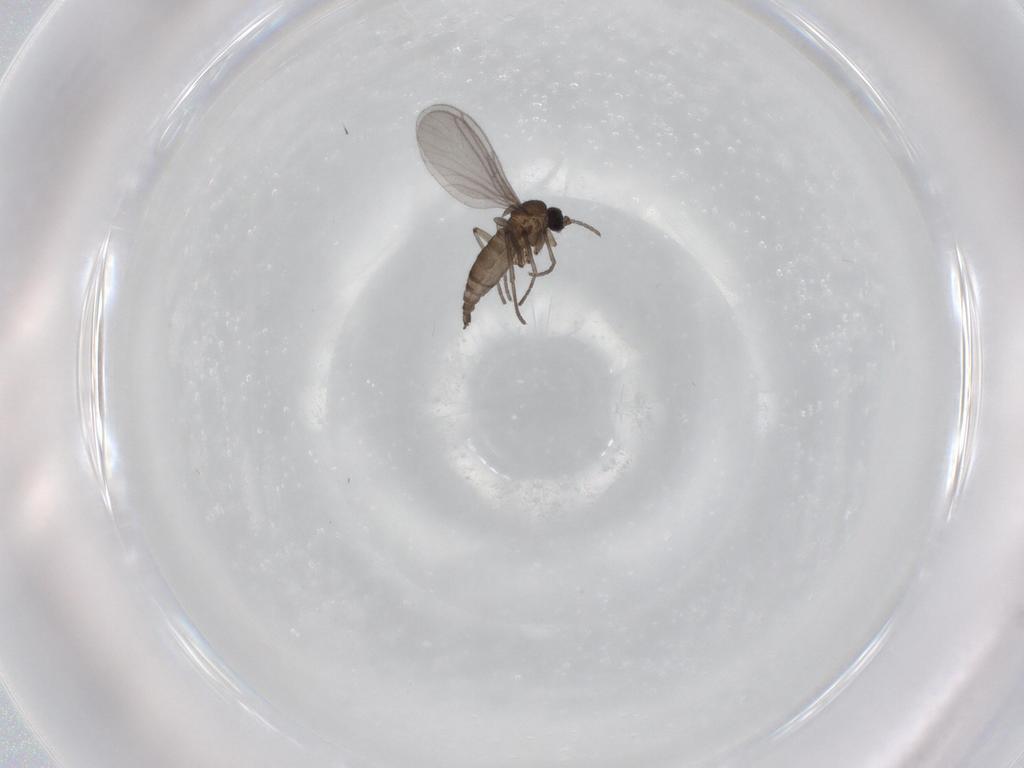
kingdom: Animalia
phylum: Arthropoda
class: Insecta
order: Diptera
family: Sciaridae
